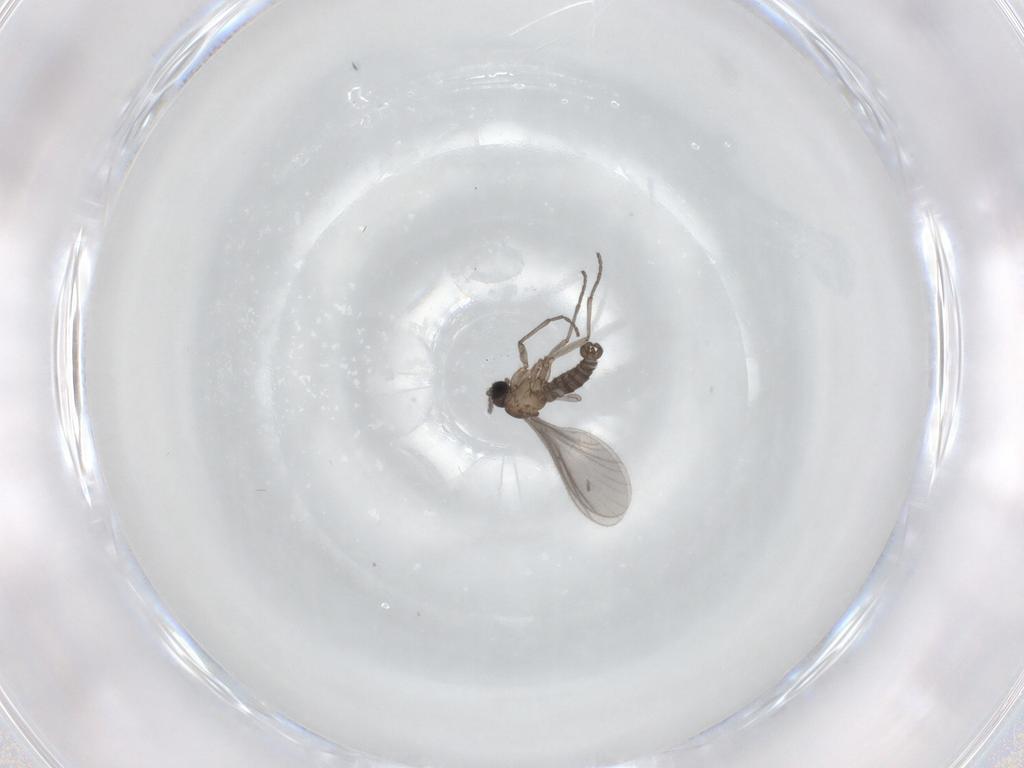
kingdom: Animalia
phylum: Arthropoda
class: Insecta
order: Diptera
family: Sciaridae
